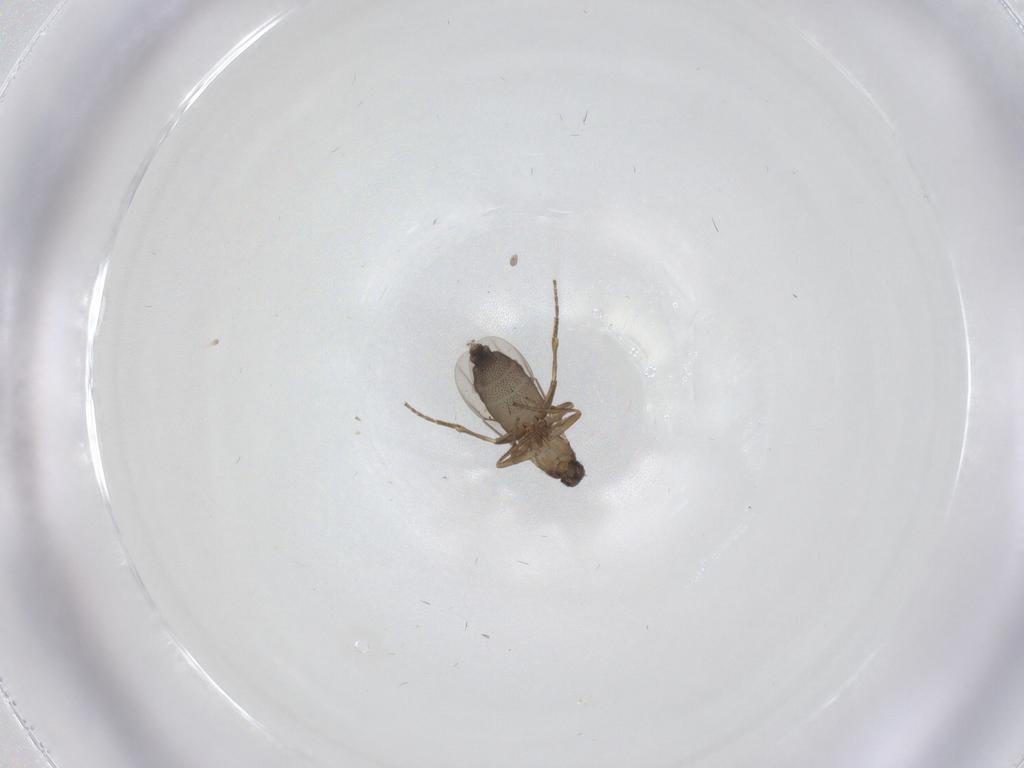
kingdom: Animalia
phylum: Arthropoda
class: Insecta
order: Diptera
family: Phoridae
